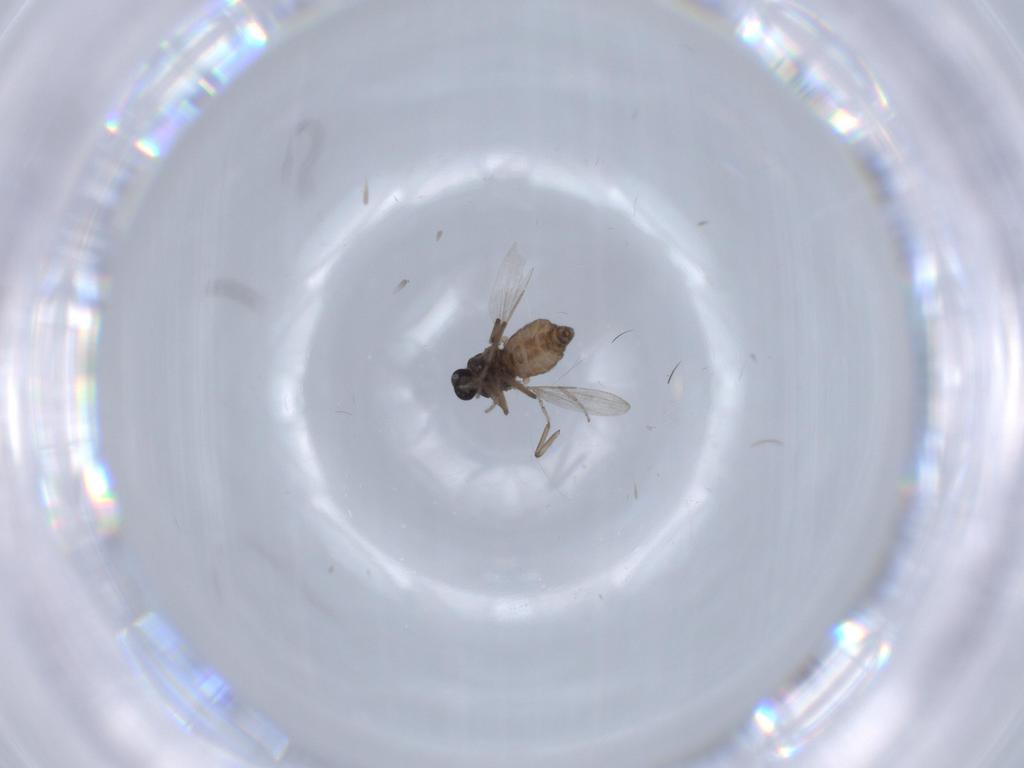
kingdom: Animalia
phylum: Arthropoda
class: Insecta
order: Diptera
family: Ceratopogonidae
